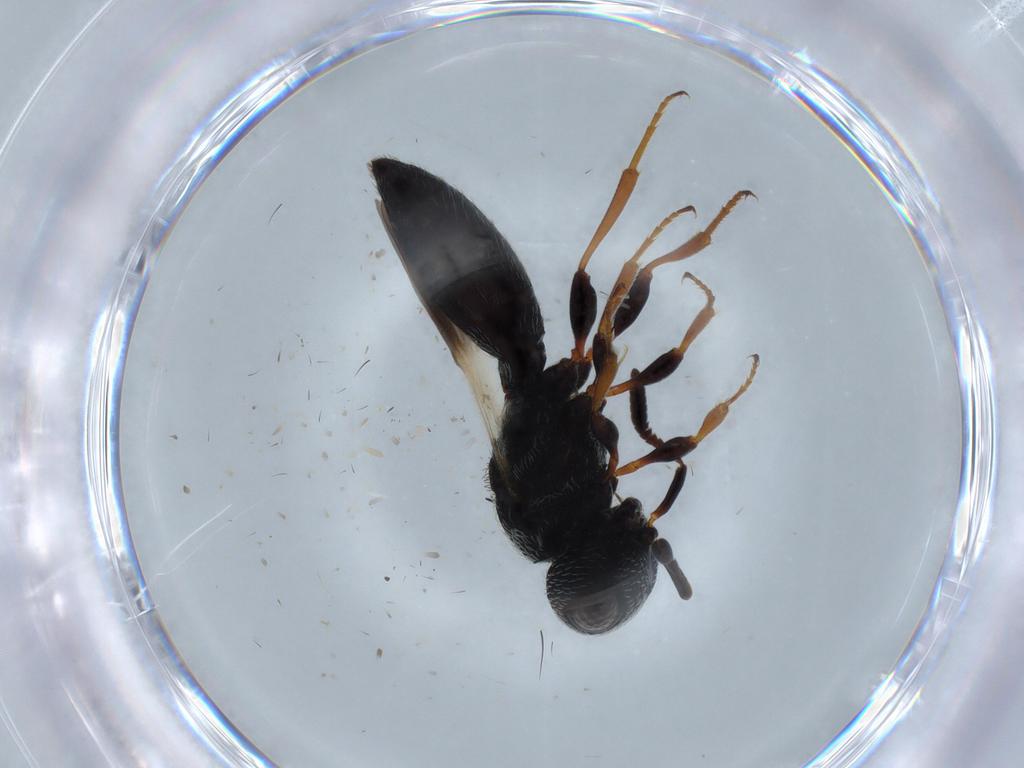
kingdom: Animalia
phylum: Arthropoda
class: Insecta
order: Hymenoptera
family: Scelionidae
